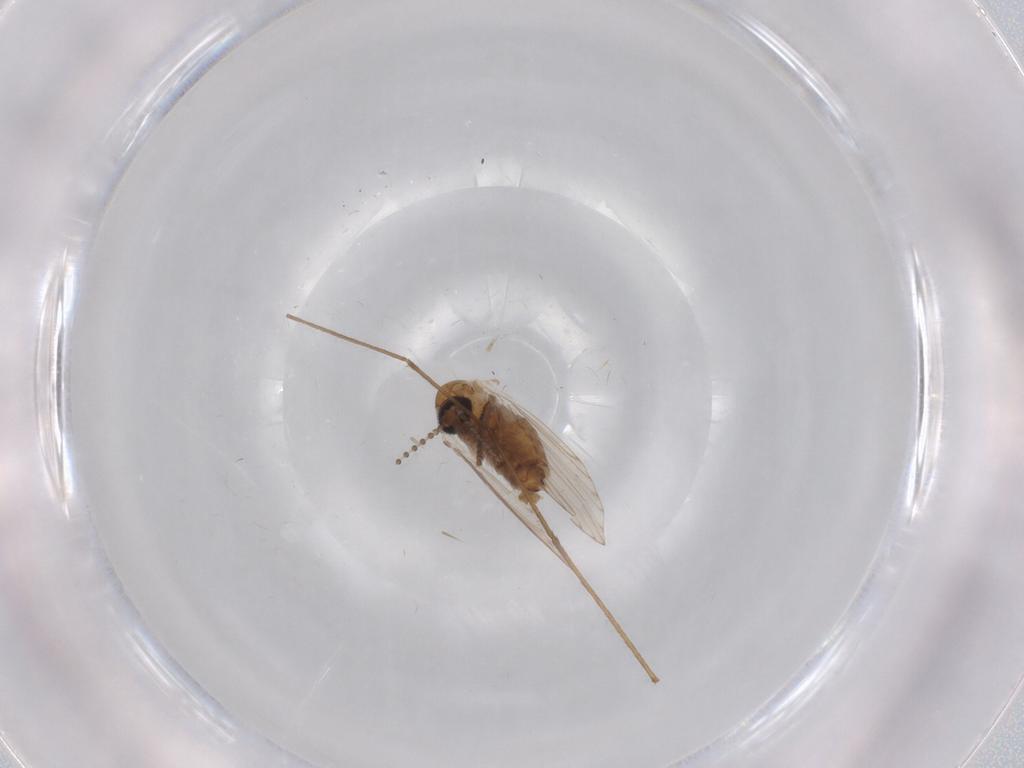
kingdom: Animalia
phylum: Arthropoda
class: Insecta
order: Diptera
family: Psychodidae
